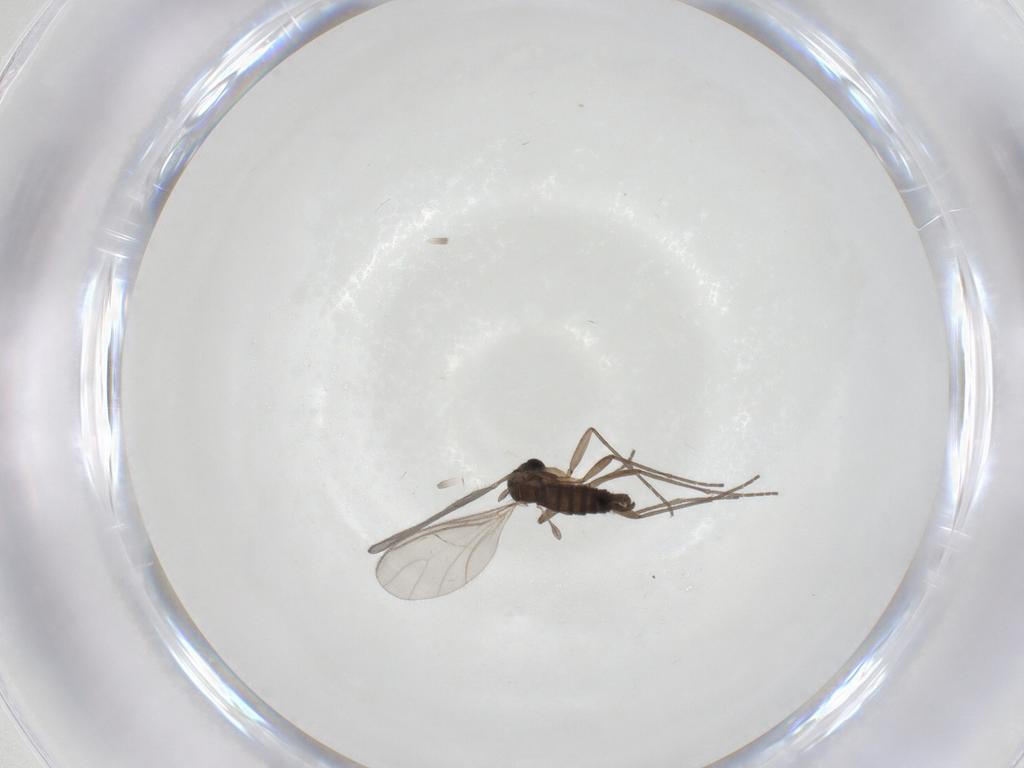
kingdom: Animalia
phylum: Arthropoda
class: Insecta
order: Diptera
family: Sciaridae
